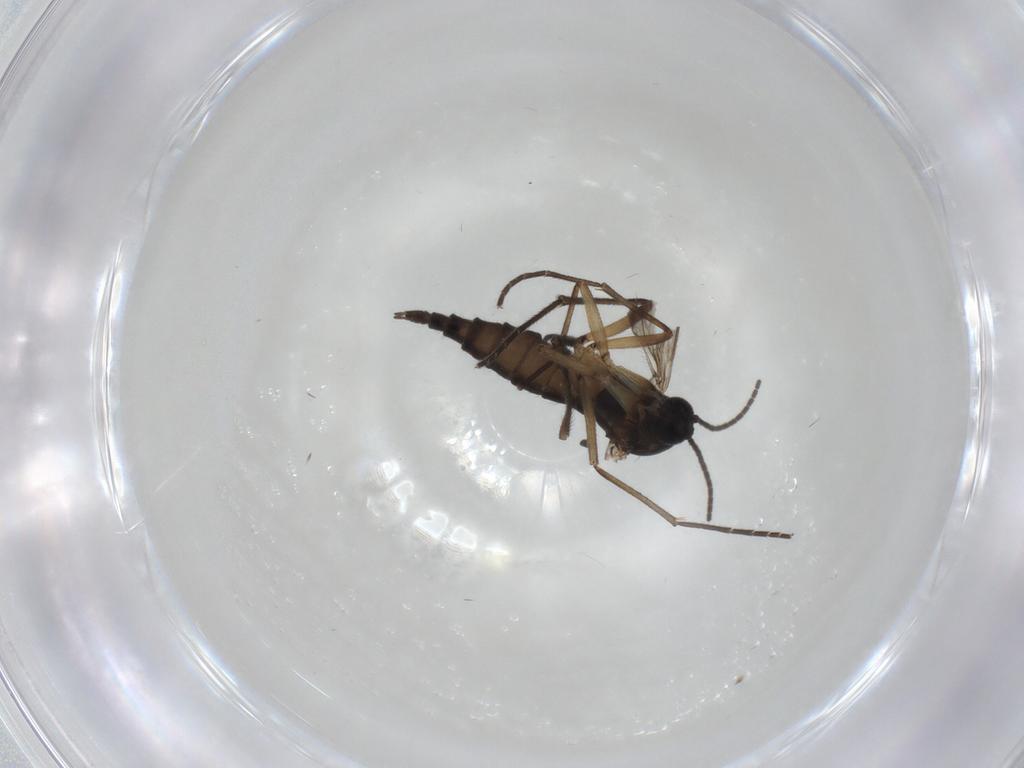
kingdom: Animalia
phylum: Arthropoda
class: Insecta
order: Diptera
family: Sciaridae
